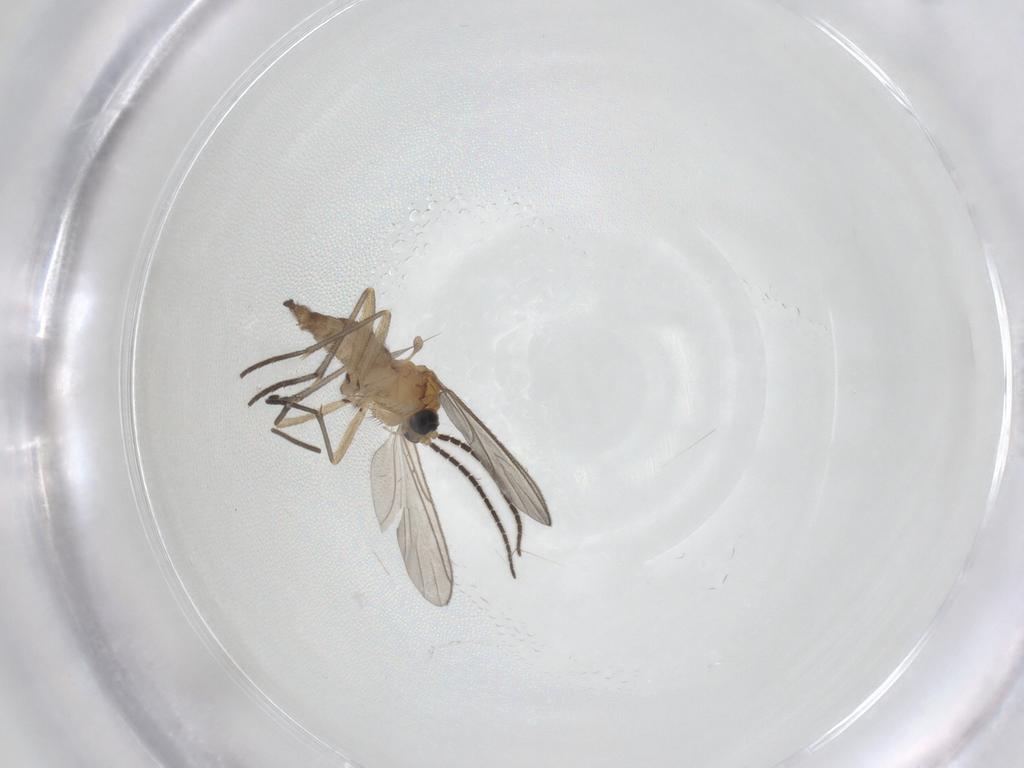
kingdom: Animalia
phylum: Arthropoda
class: Insecta
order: Diptera
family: Sciaridae
